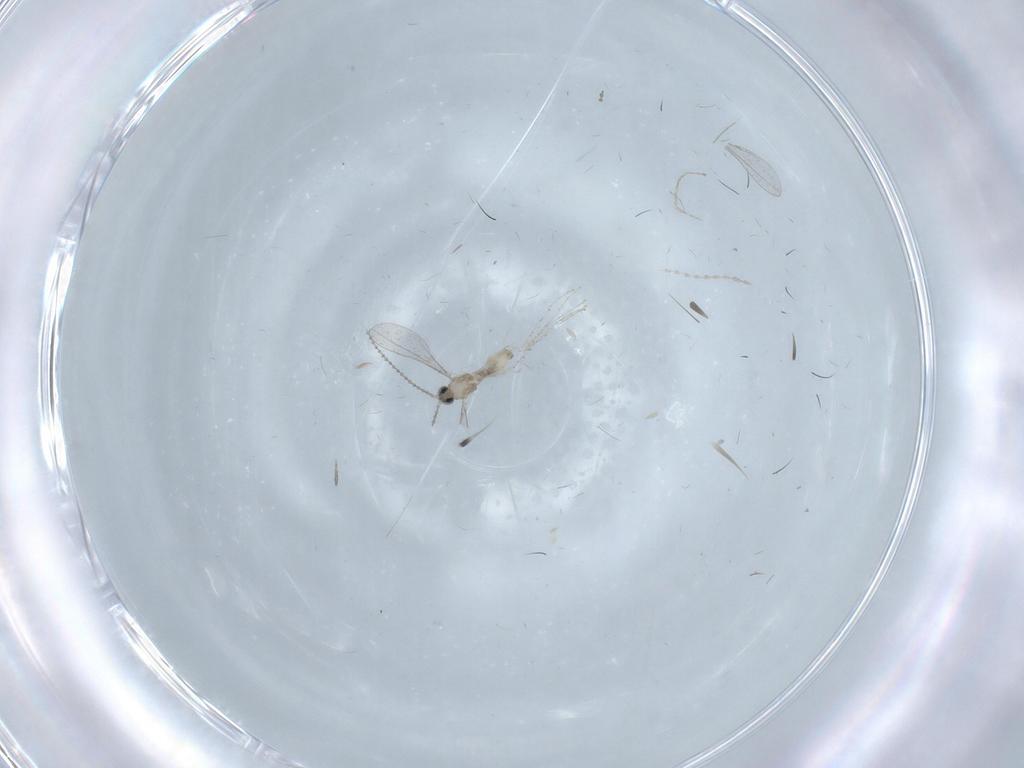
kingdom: Animalia
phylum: Arthropoda
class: Insecta
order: Diptera
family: Cecidomyiidae
